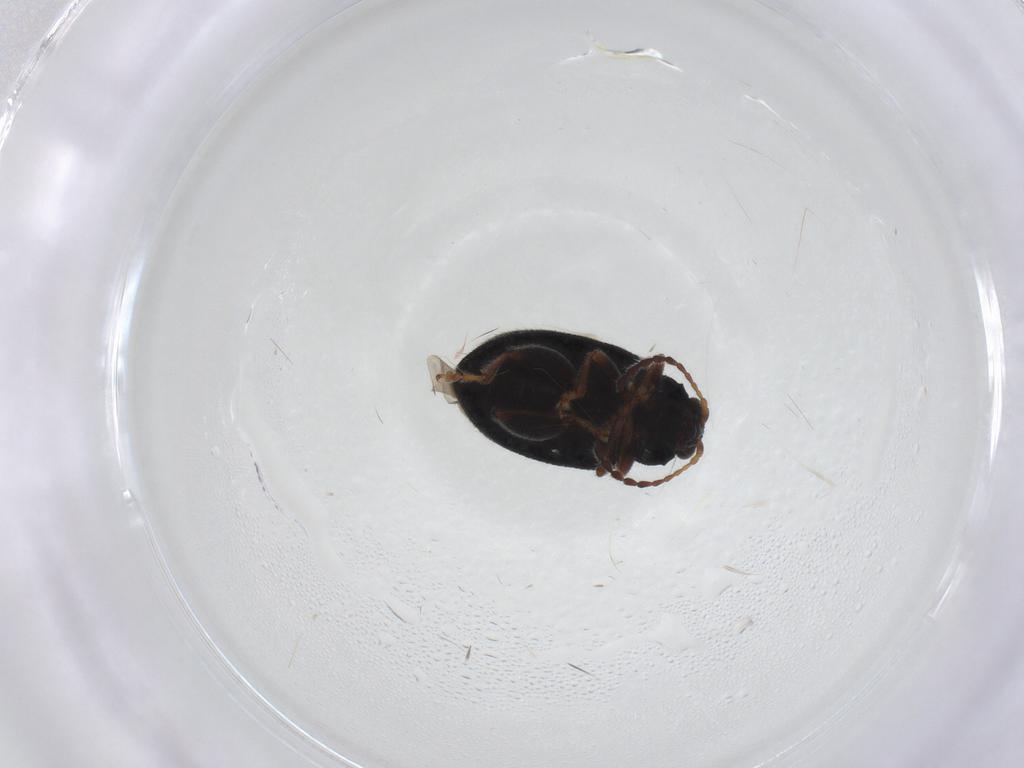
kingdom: Animalia
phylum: Arthropoda
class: Insecta
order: Coleoptera
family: Chrysomelidae
